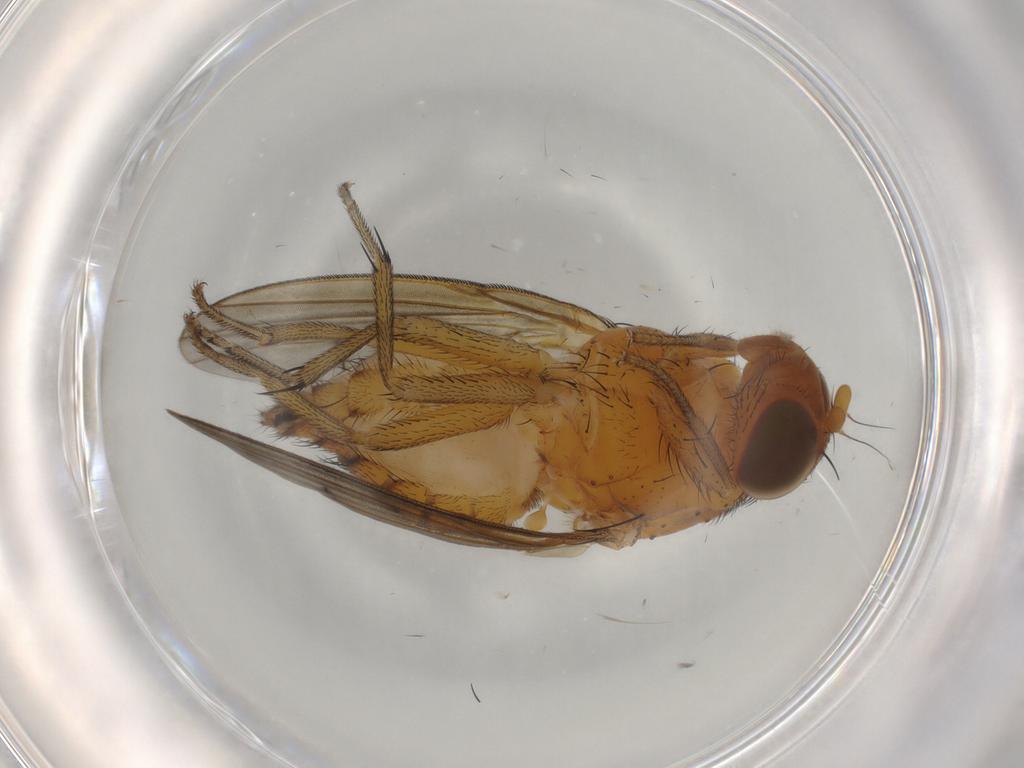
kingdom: Animalia
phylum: Arthropoda
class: Insecta
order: Diptera
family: Lauxaniidae
